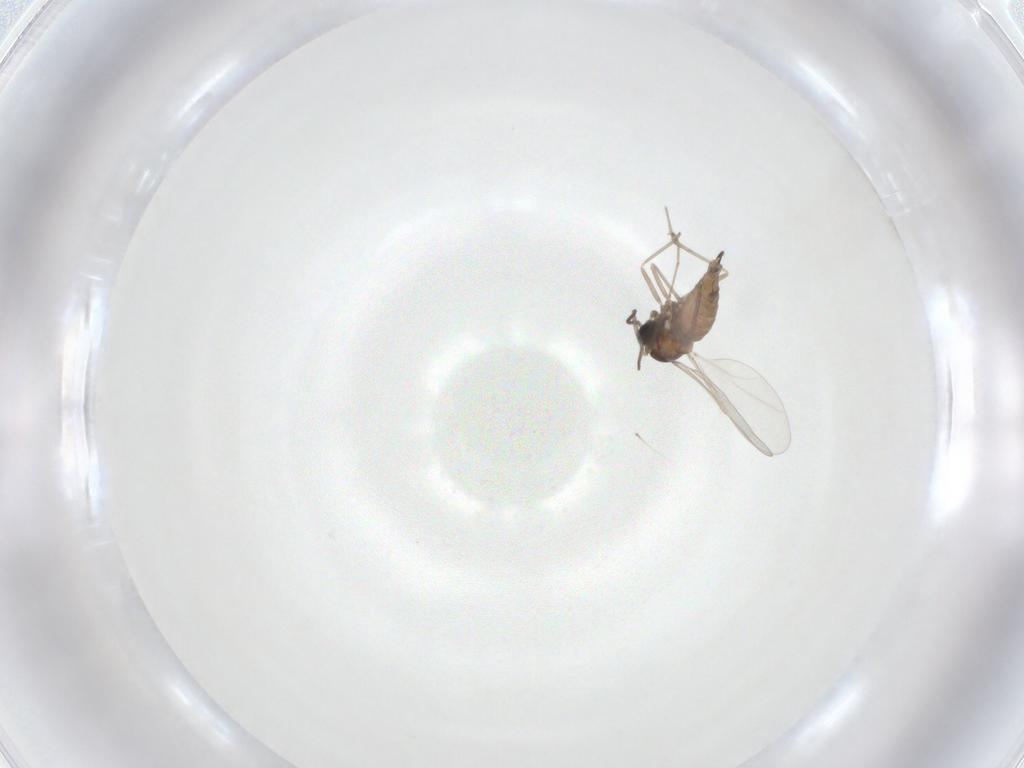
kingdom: Animalia
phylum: Arthropoda
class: Insecta
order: Diptera
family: Cecidomyiidae
